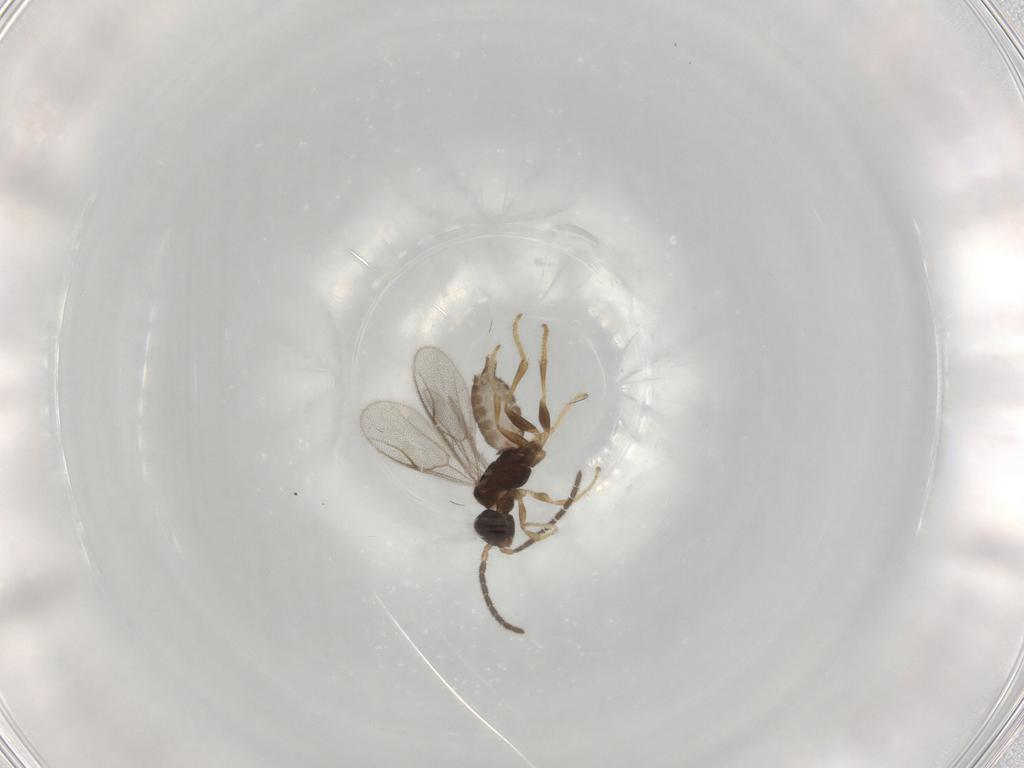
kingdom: Animalia
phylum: Arthropoda
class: Insecta
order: Hymenoptera
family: Dryinidae
